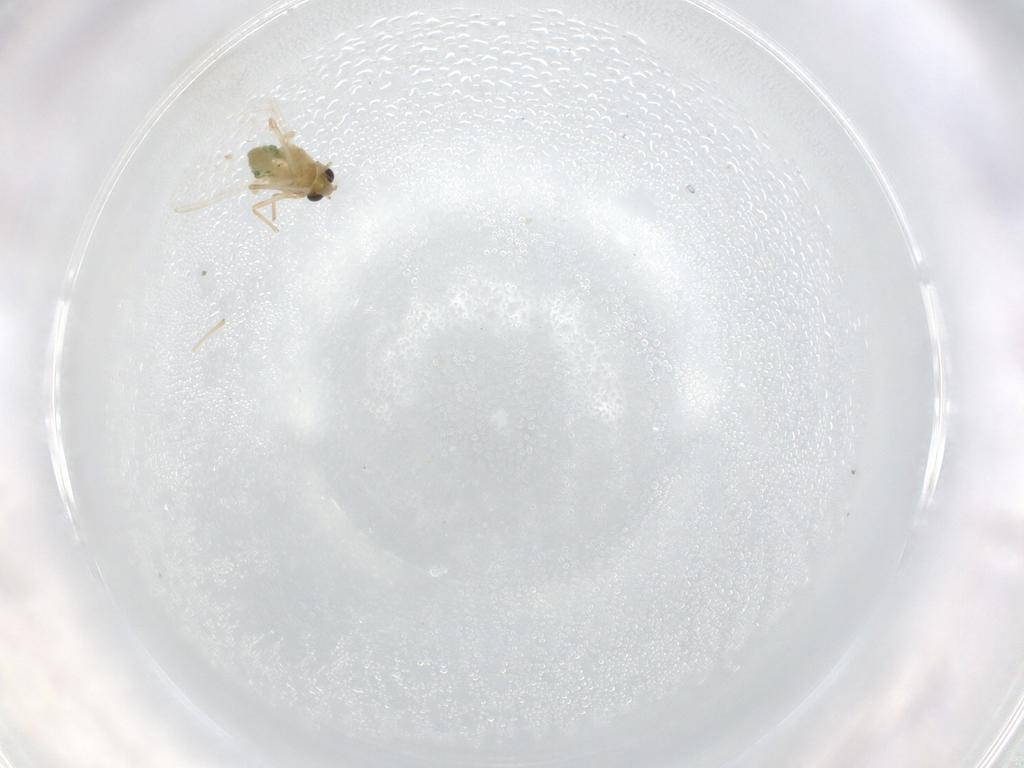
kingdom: Animalia
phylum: Arthropoda
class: Insecta
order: Diptera
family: Chironomidae
